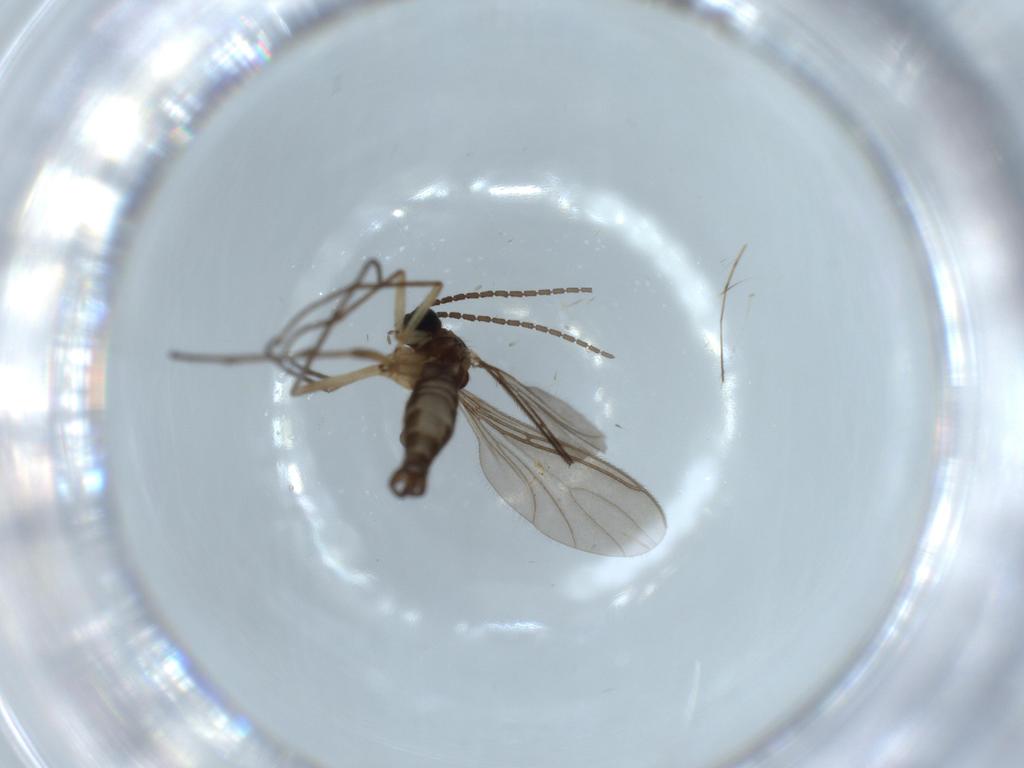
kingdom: Animalia
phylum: Arthropoda
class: Insecta
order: Diptera
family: Sciaridae
